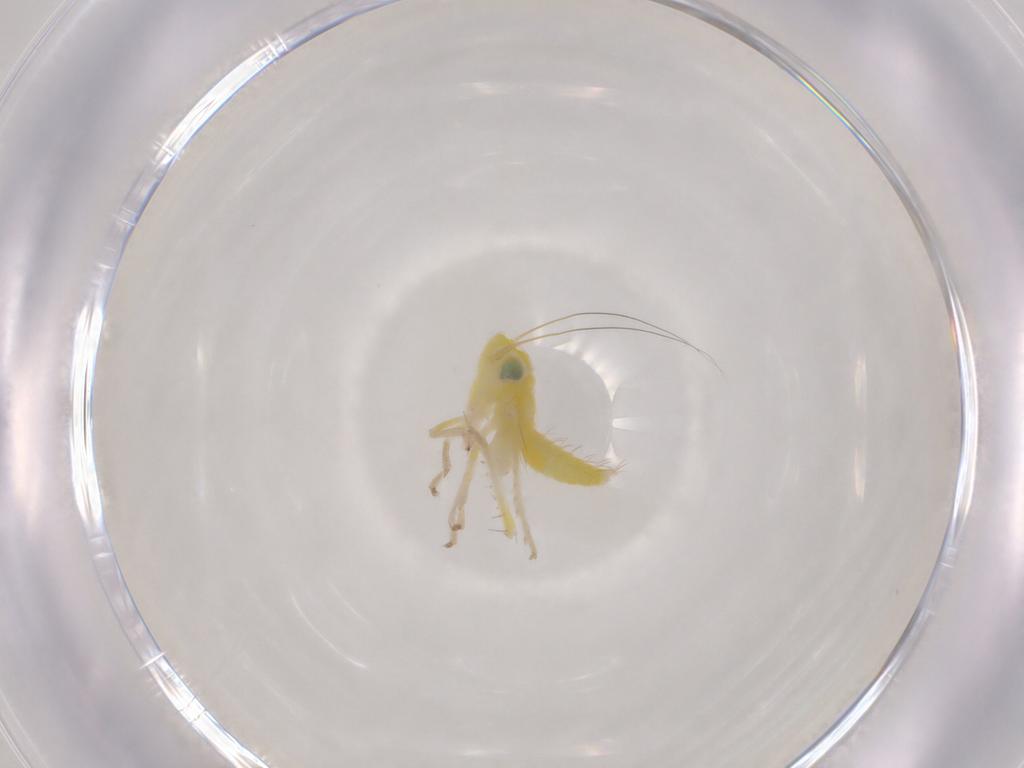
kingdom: Animalia
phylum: Arthropoda
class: Insecta
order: Hemiptera
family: Cicadellidae
